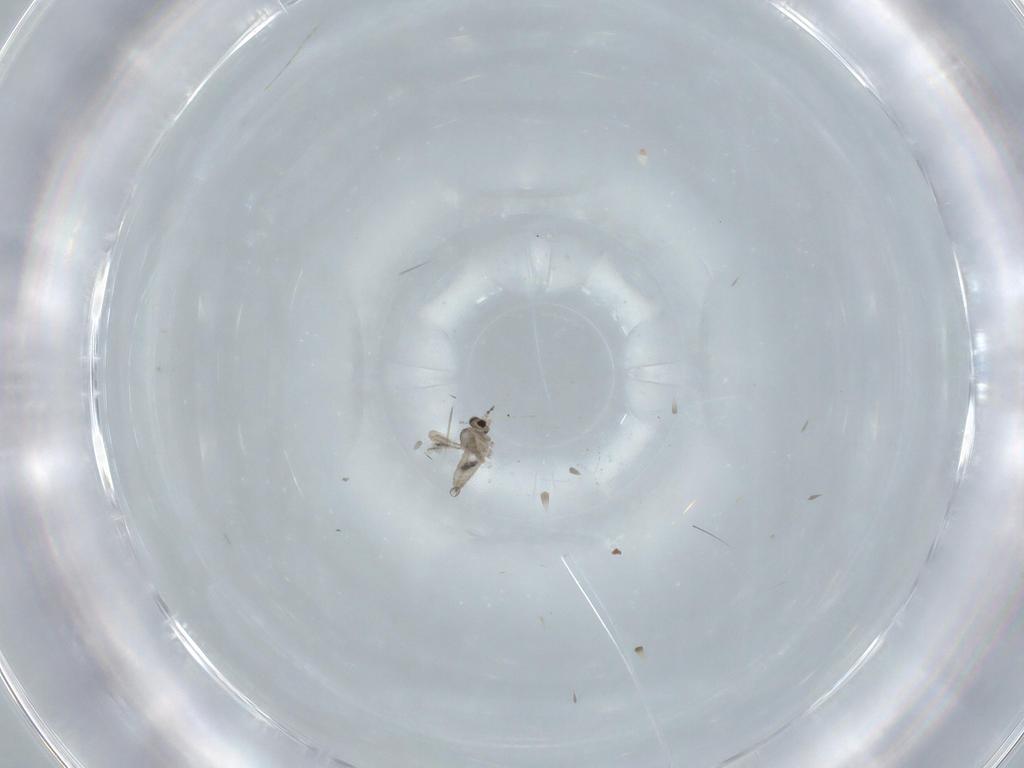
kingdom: Animalia
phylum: Arthropoda
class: Insecta
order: Diptera
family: Cecidomyiidae
